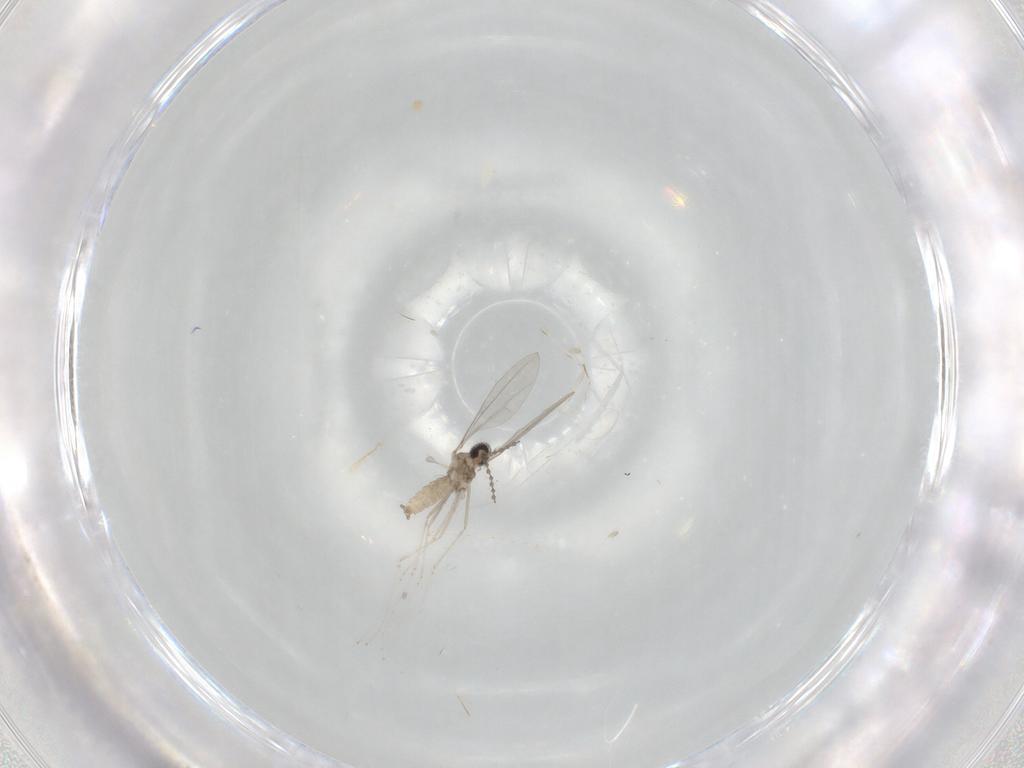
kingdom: Animalia
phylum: Arthropoda
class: Insecta
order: Diptera
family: Cecidomyiidae
